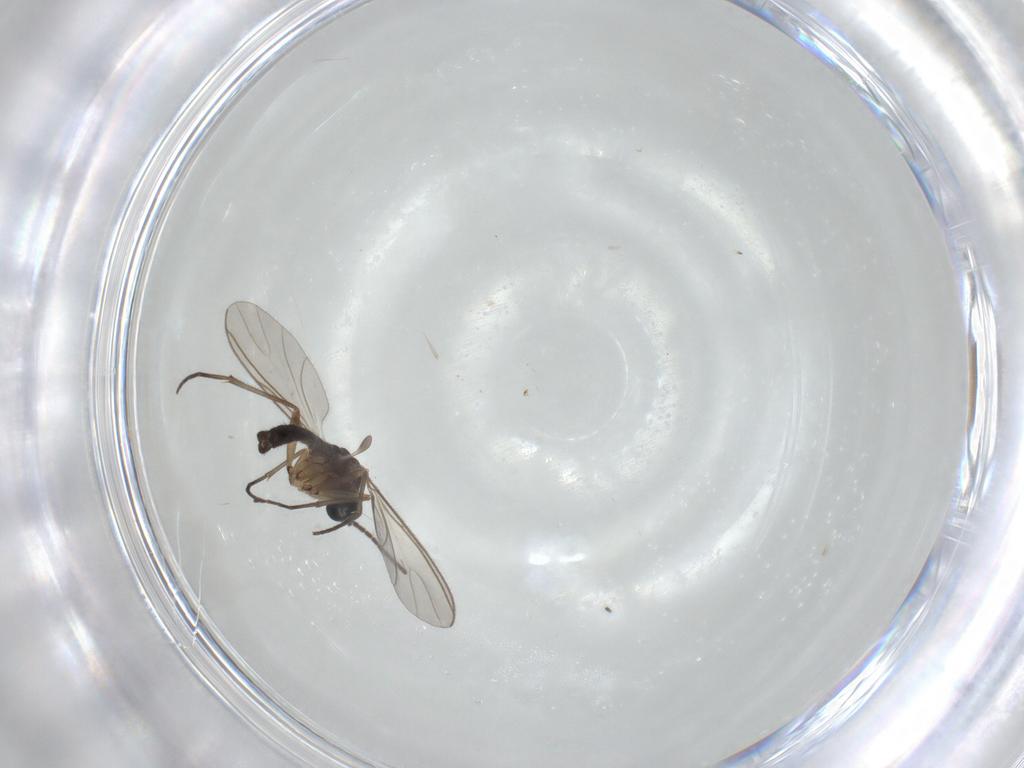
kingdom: Animalia
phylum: Arthropoda
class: Insecta
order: Diptera
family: Sciaridae
